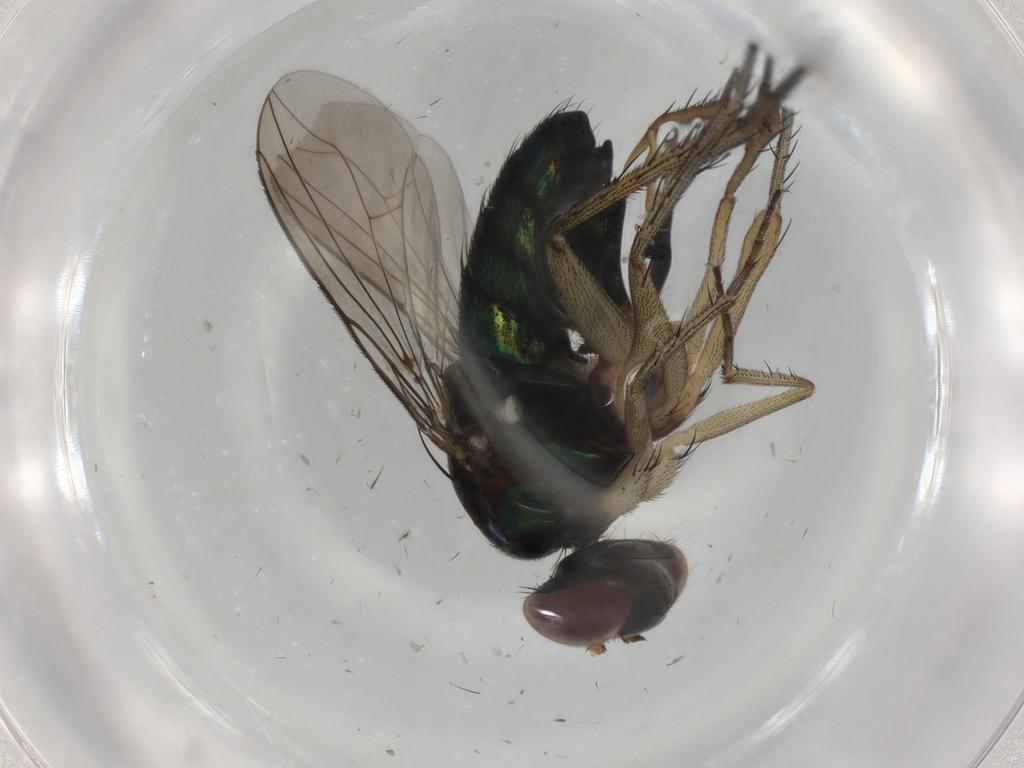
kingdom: Animalia
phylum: Arthropoda
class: Insecta
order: Diptera
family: Dolichopodidae
